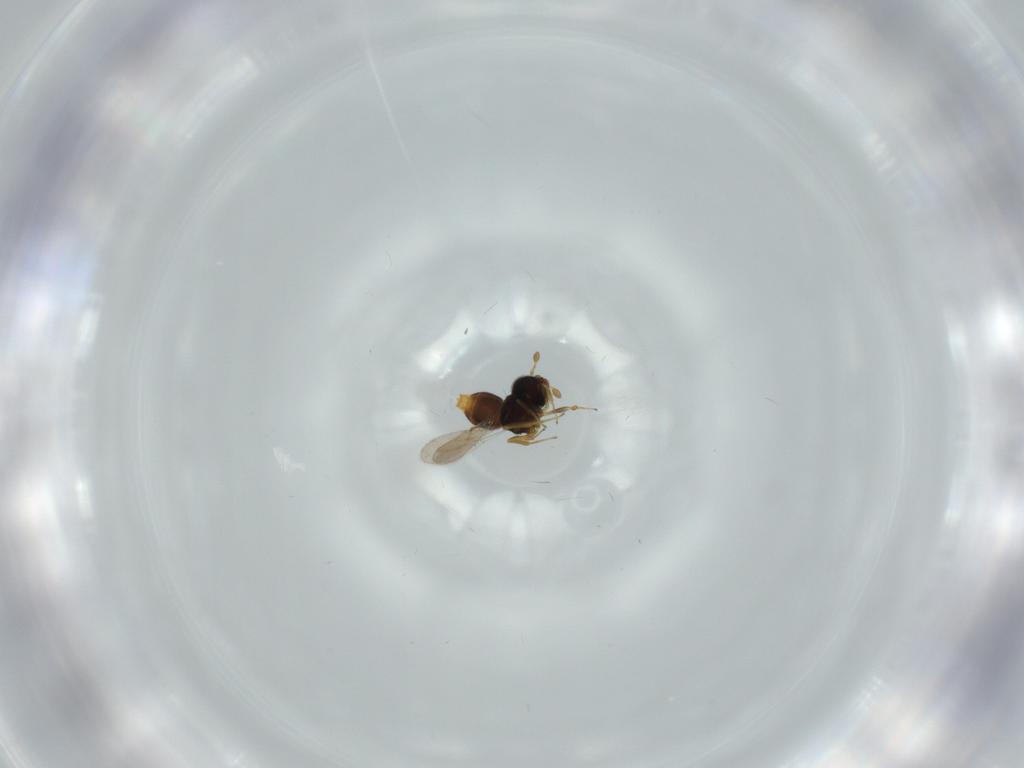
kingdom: Animalia
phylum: Arthropoda
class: Insecta
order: Hymenoptera
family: Scelionidae
